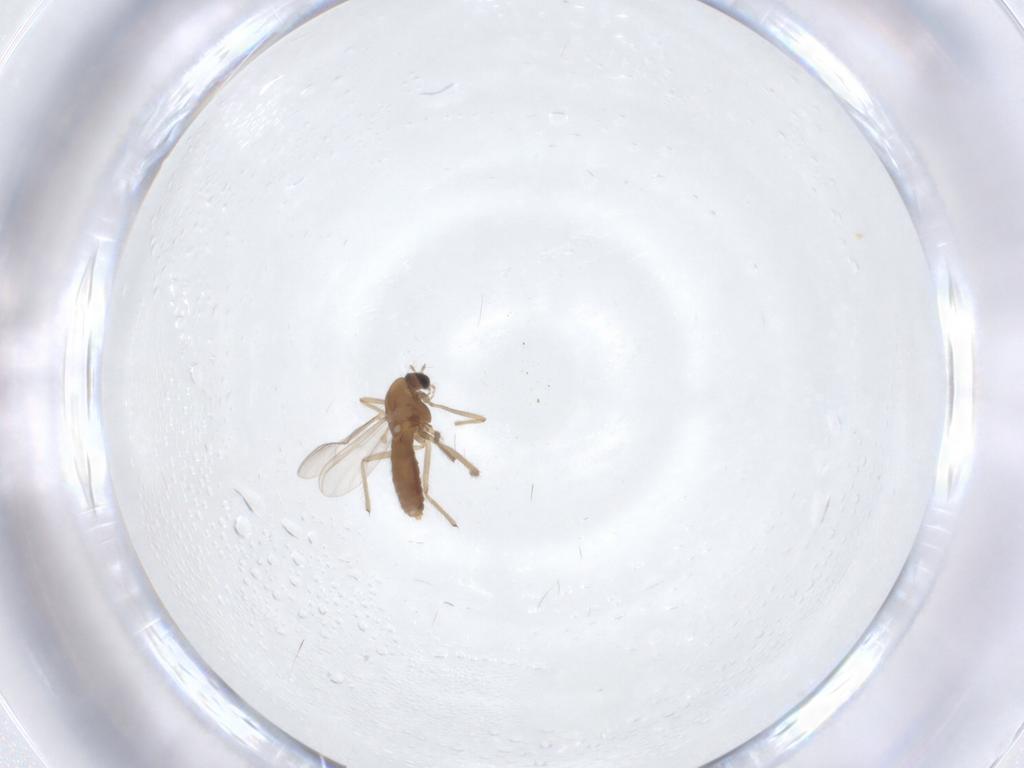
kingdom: Animalia
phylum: Arthropoda
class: Insecta
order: Diptera
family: Chironomidae
